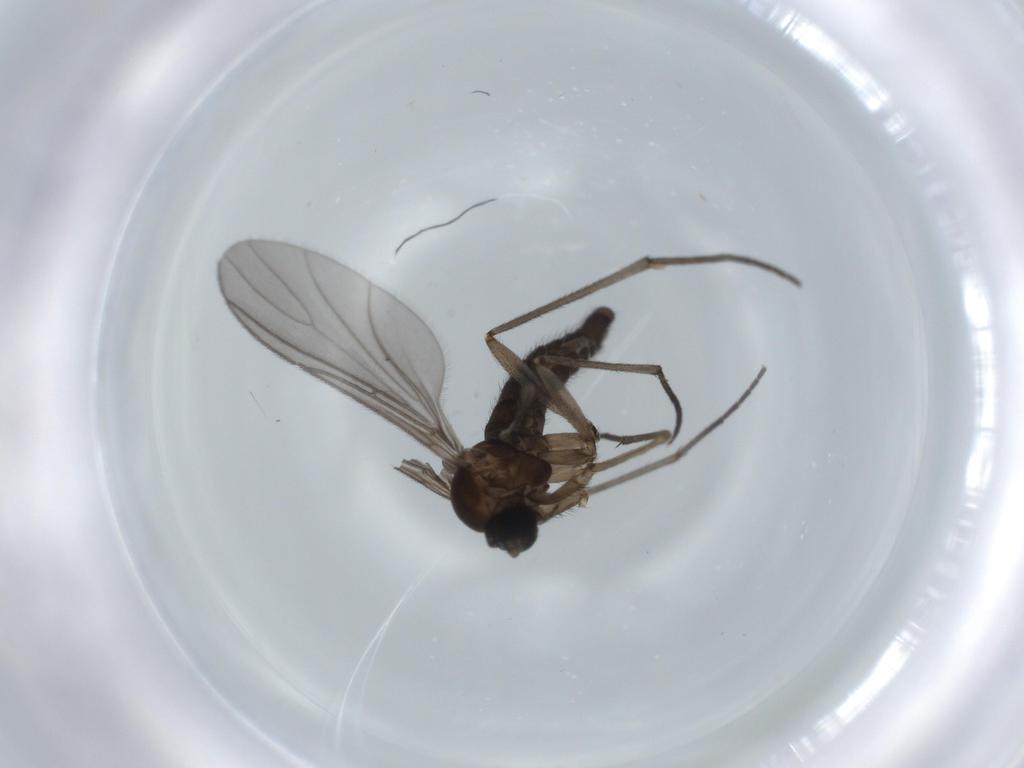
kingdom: Animalia
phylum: Arthropoda
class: Insecta
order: Diptera
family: Sciaridae
